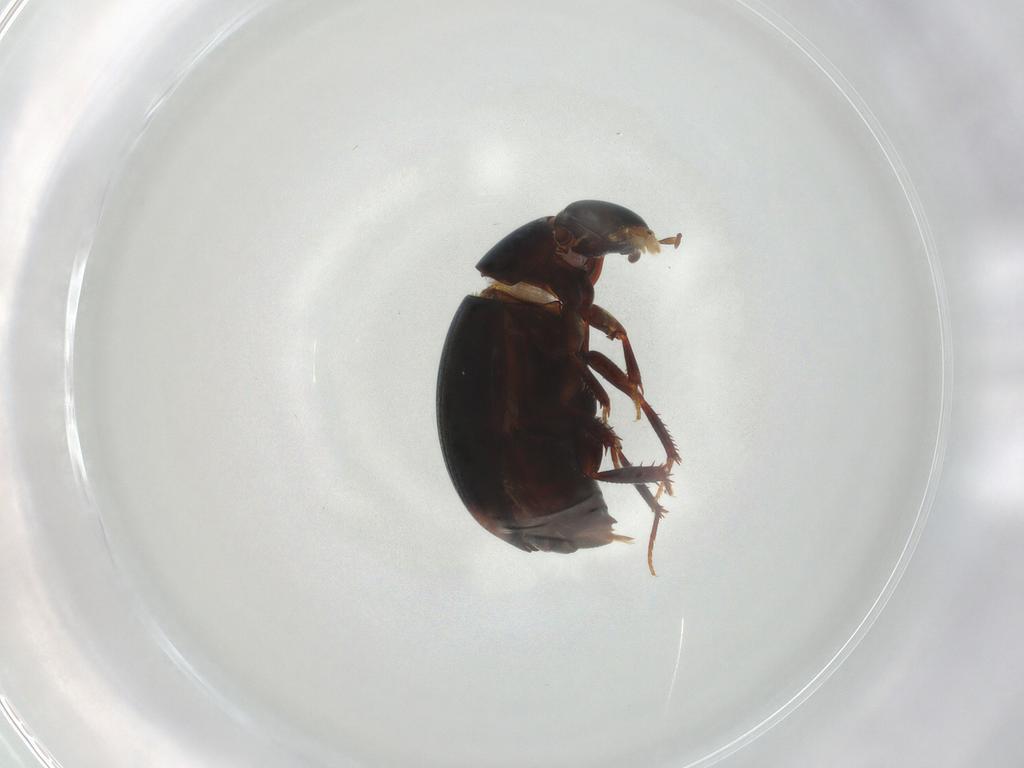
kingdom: Animalia
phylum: Arthropoda
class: Insecta
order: Coleoptera
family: Hydrophilidae
